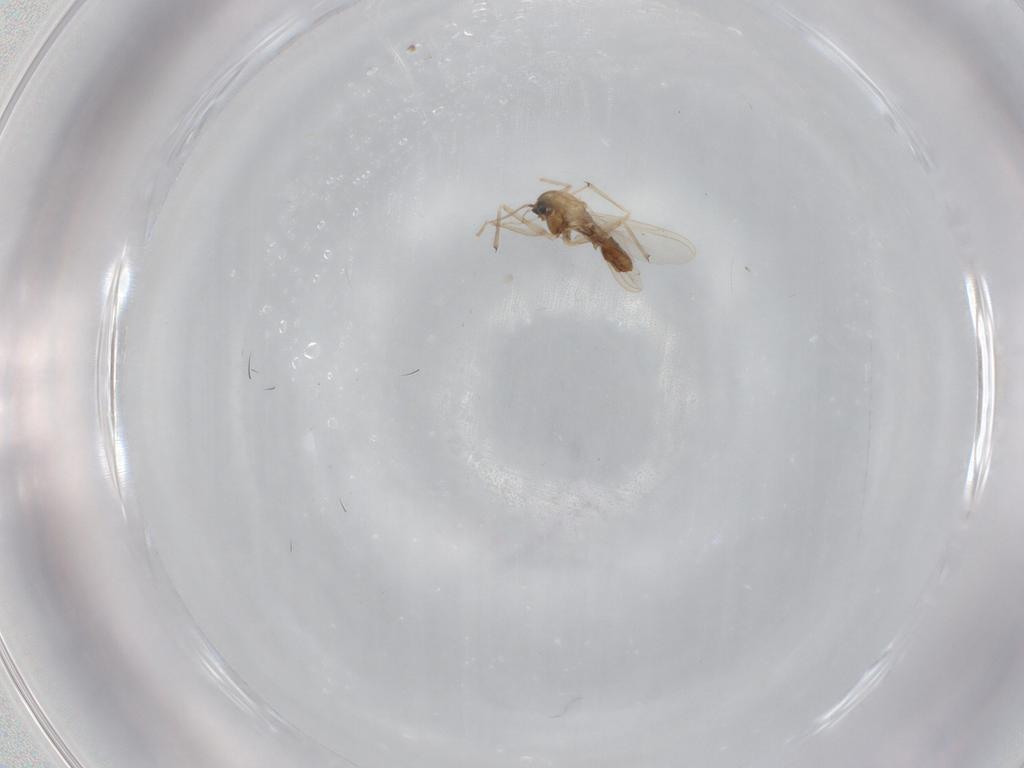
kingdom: Animalia
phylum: Arthropoda
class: Insecta
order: Diptera
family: Chironomidae
